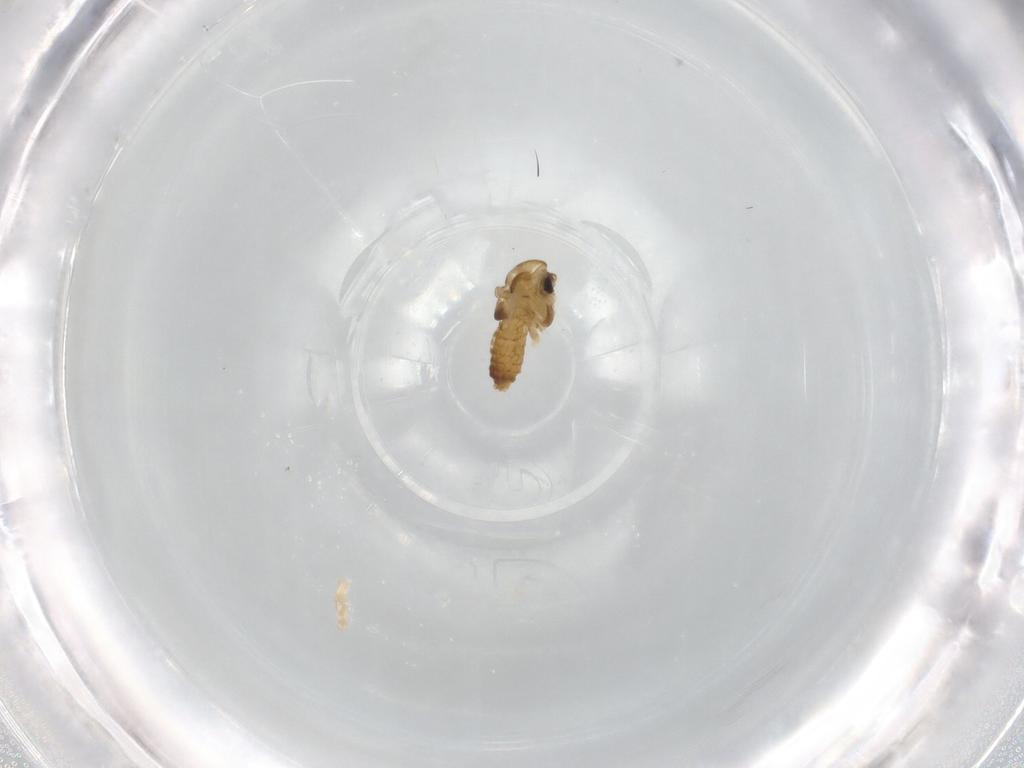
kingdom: Animalia
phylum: Arthropoda
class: Insecta
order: Diptera
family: Chironomidae
